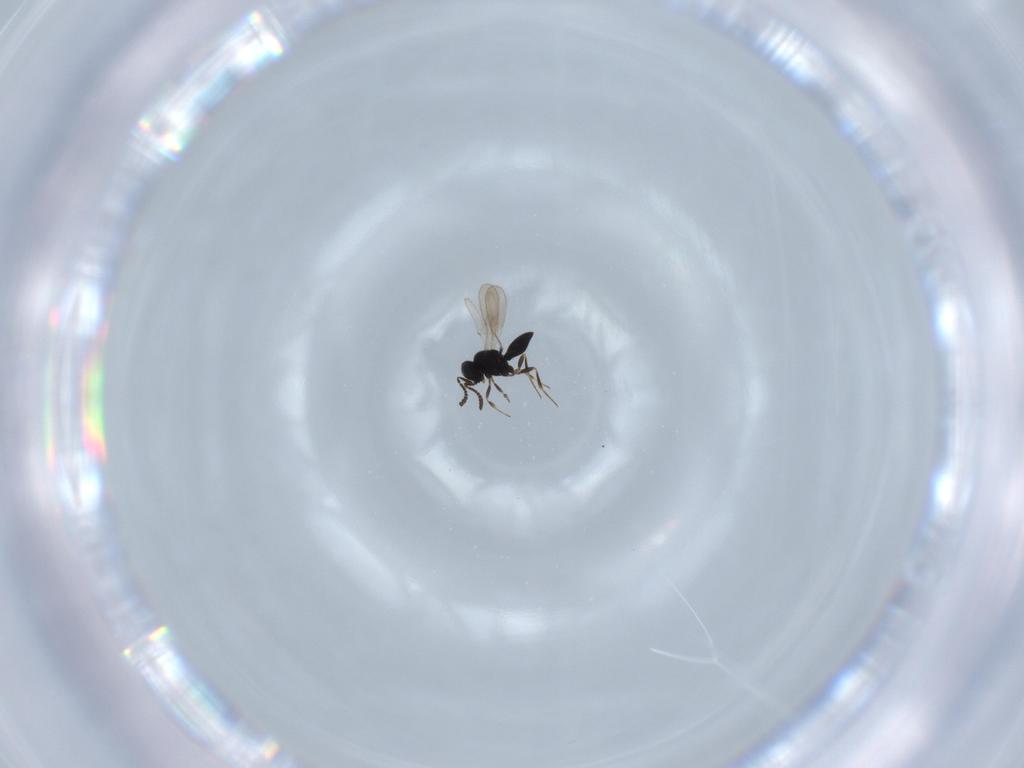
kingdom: Animalia
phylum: Arthropoda
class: Insecta
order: Hymenoptera
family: Scelionidae
